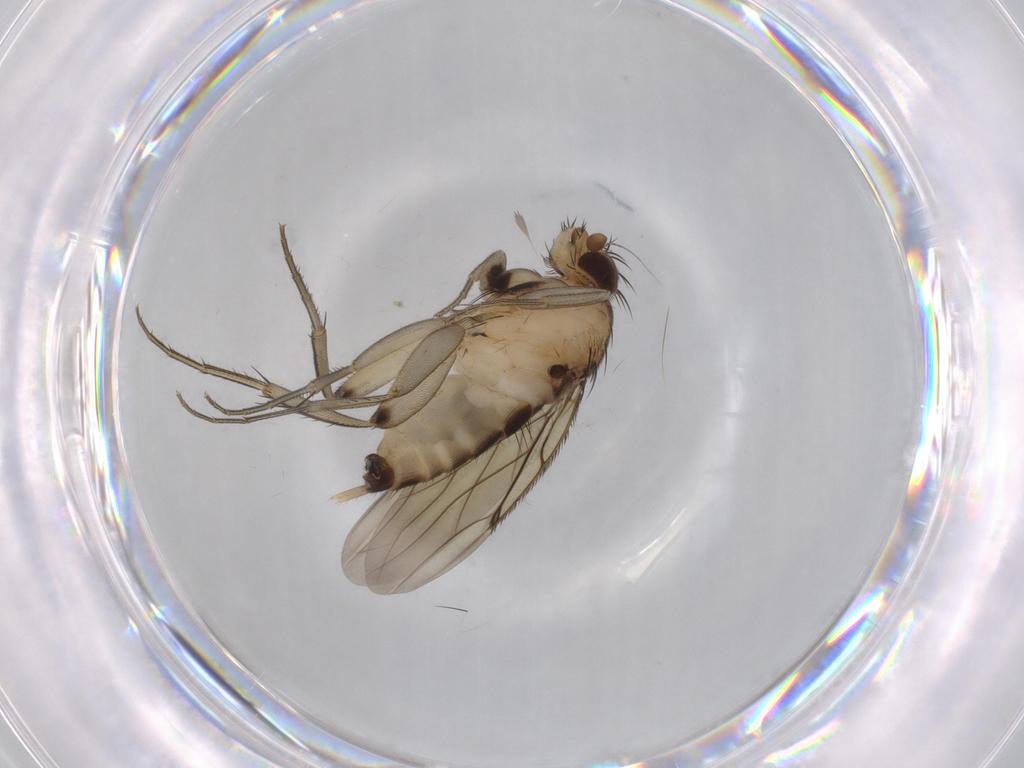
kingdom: Animalia
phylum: Arthropoda
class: Insecta
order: Diptera
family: Phoridae
